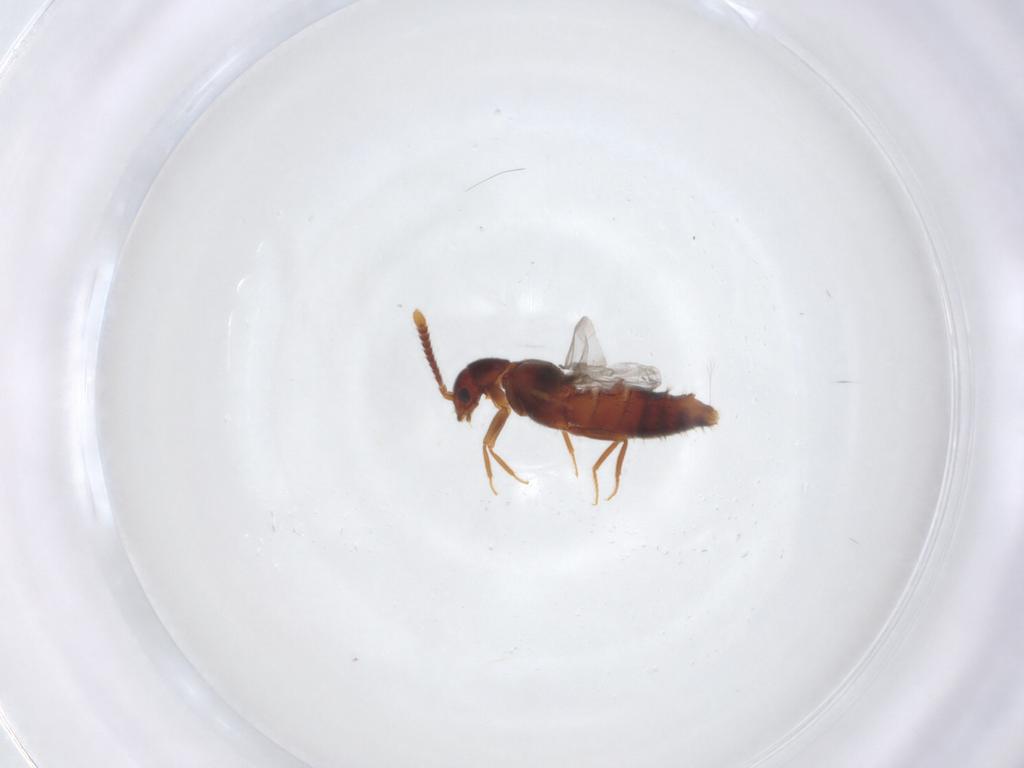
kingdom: Animalia
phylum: Arthropoda
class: Insecta
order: Coleoptera
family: Staphylinidae
